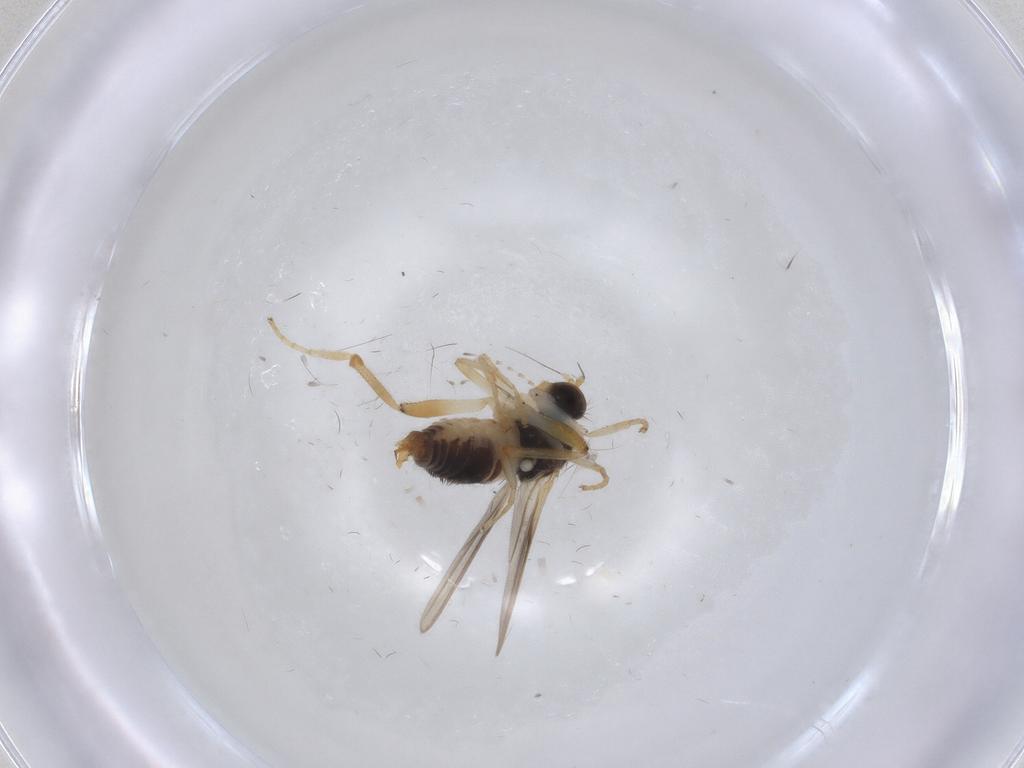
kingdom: Animalia
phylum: Arthropoda
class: Insecta
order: Diptera
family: Hybotidae
